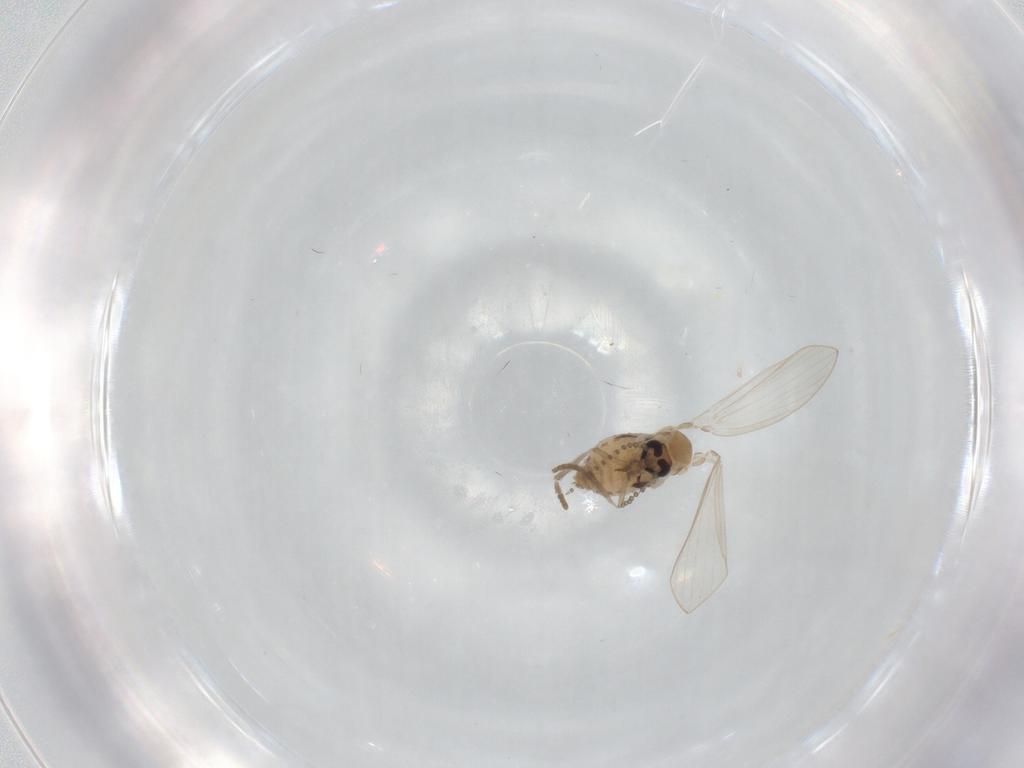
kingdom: Animalia
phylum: Arthropoda
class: Insecta
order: Diptera
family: Psychodidae
